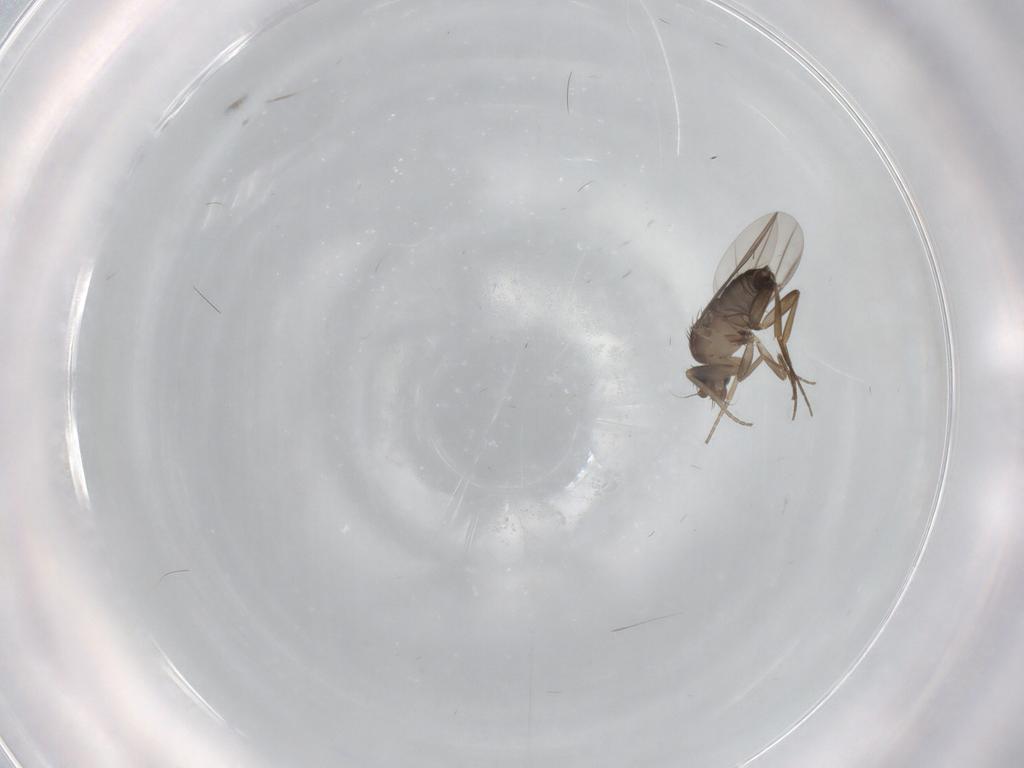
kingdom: Animalia
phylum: Arthropoda
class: Insecta
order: Diptera
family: Phoridae
